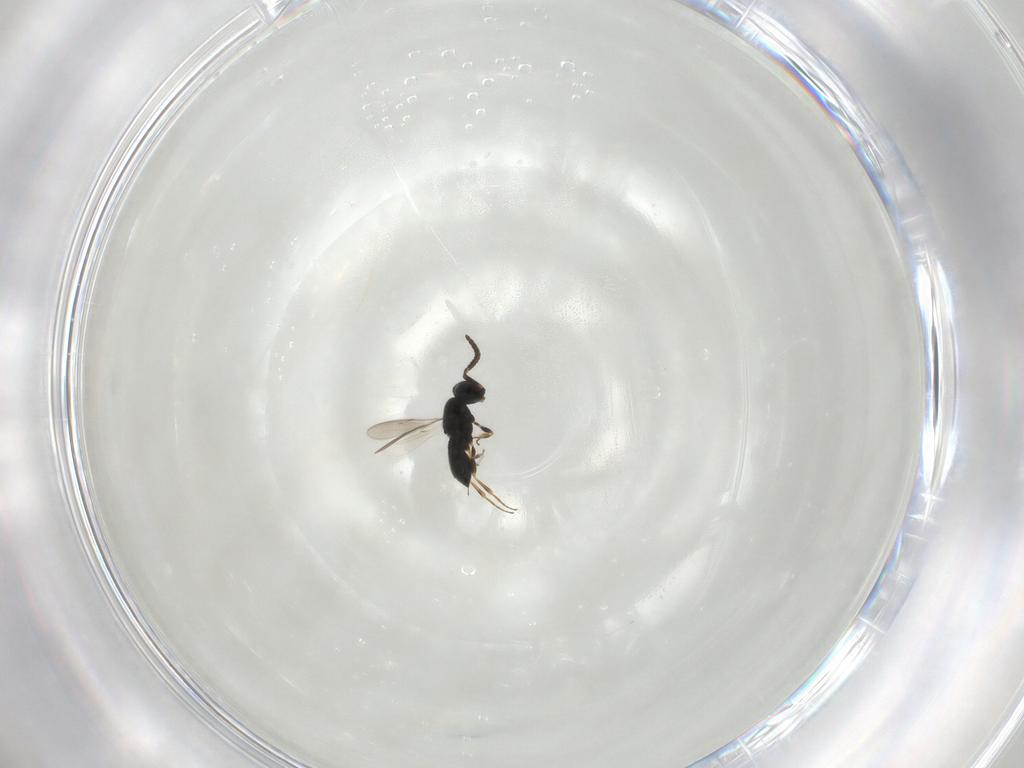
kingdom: Animalia
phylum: Arthropoda
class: Insecta
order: Hymenoptera
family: Scelionidae
